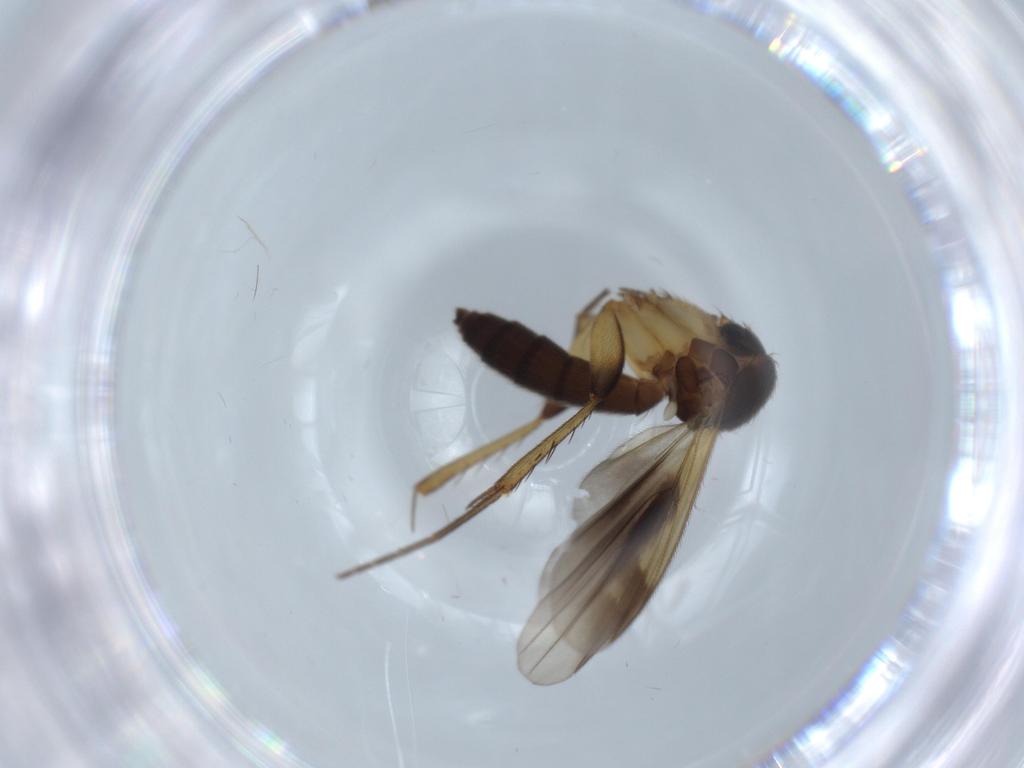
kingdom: Animalia
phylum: Arthropoda
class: Insecta
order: Diptera
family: Mycetophilidae
